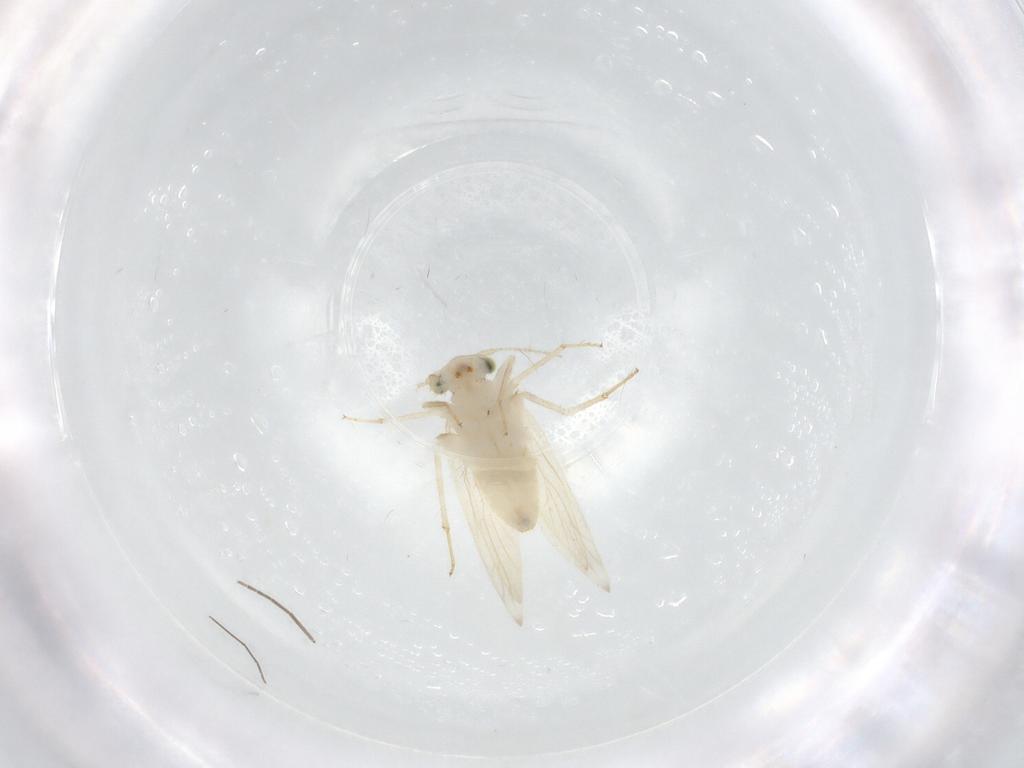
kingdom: Animalia
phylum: Arthropoda
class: Insecta
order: Psocodea
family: Lepidopsocidae
